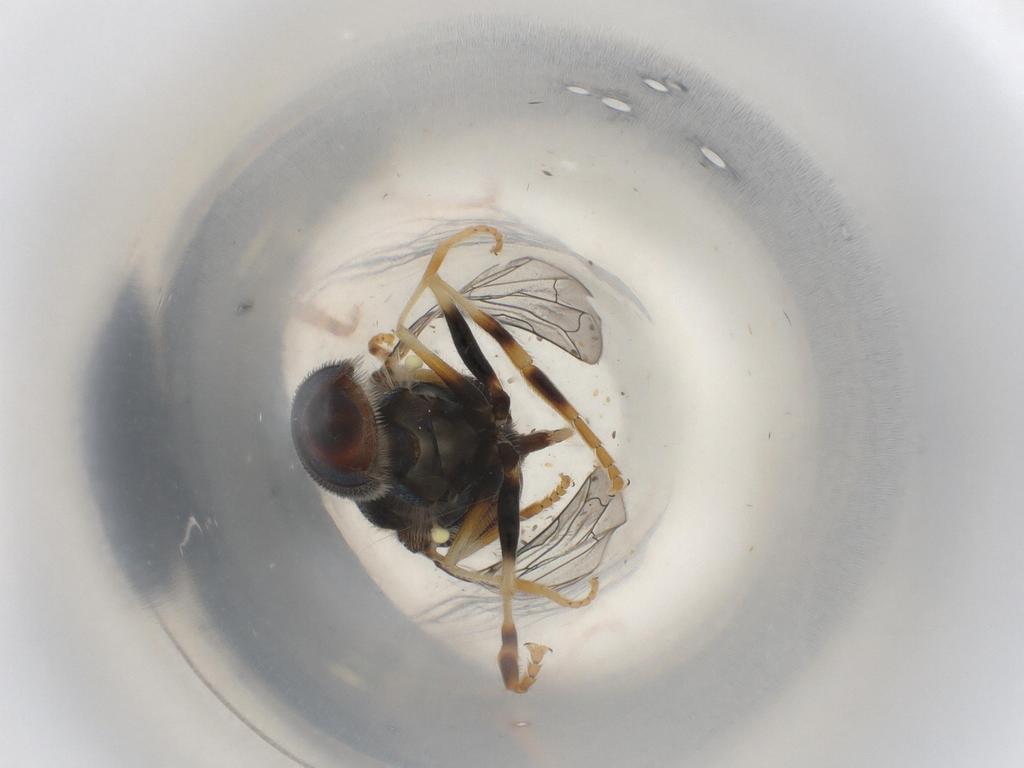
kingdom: Animalia
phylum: Arthropoda
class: Insecta
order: Diptera
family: Syrphidae
